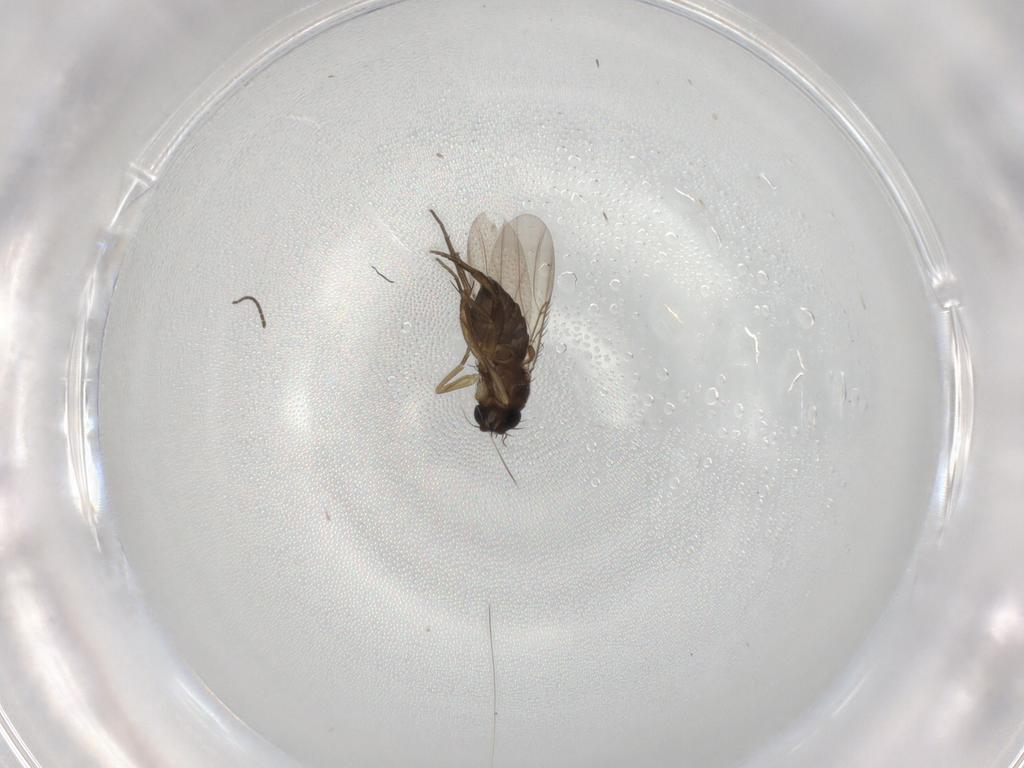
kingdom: Animalia
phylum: Arthropoda
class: Insecta
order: Diptera
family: Phoridae
